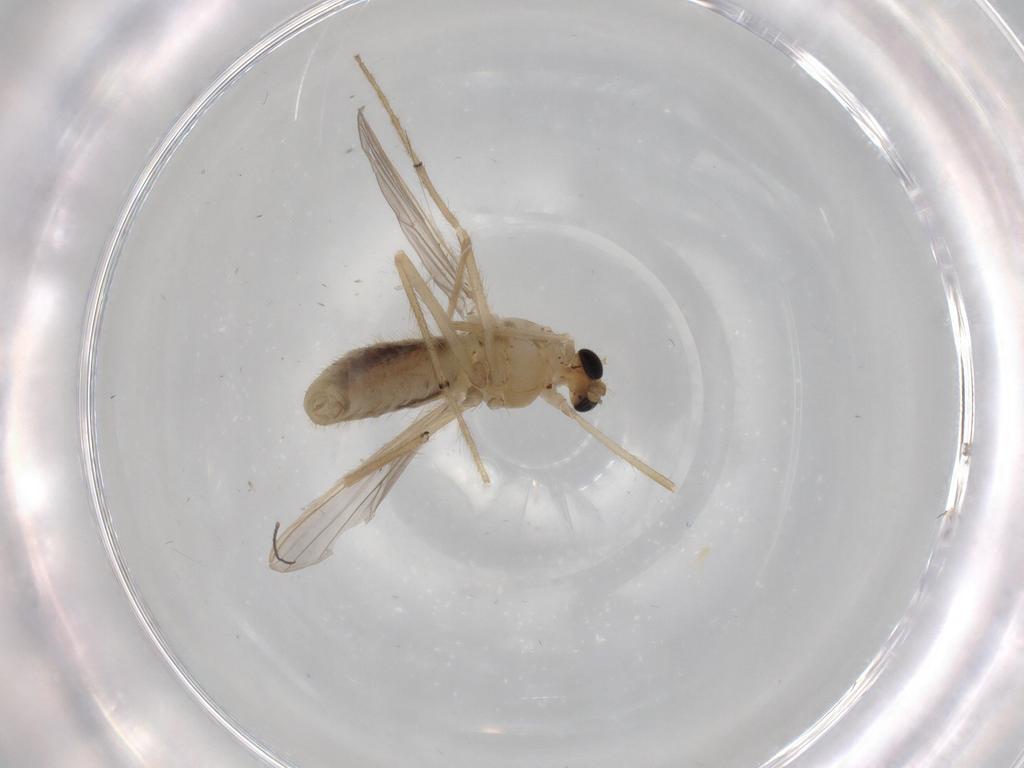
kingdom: Animalia
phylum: Arthropoda
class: Insecta
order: Diptera
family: Chironomidae
